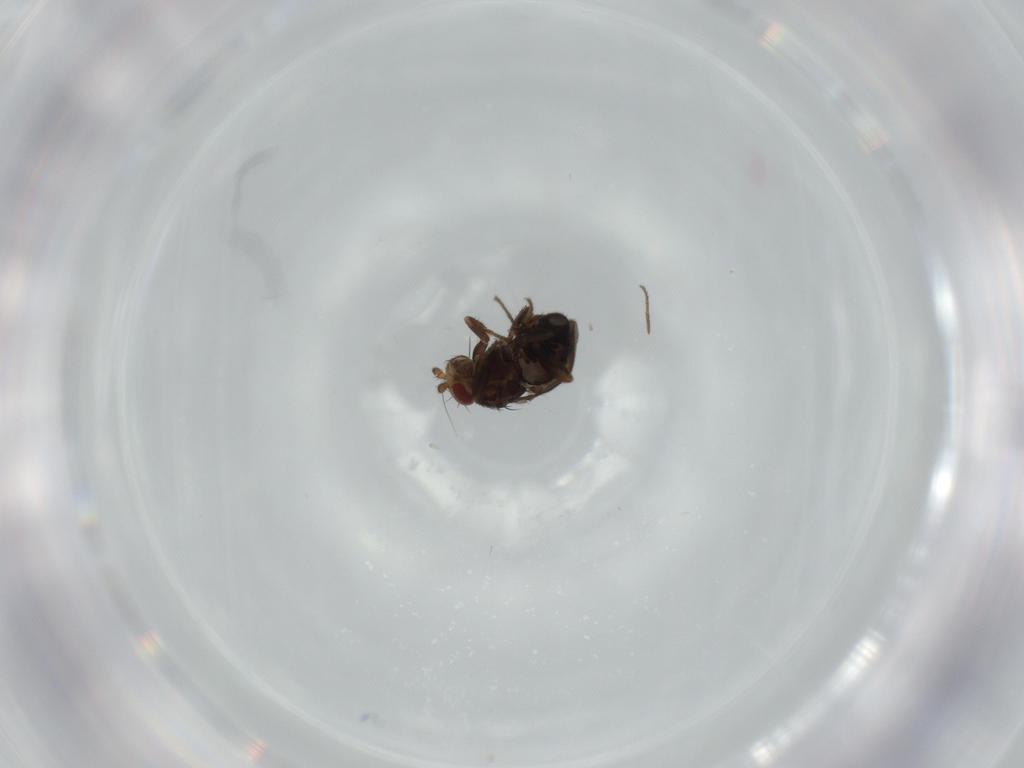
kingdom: Animalia
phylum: Arthropoda
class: Insecta
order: Diptera
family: Sphaeroceridae
